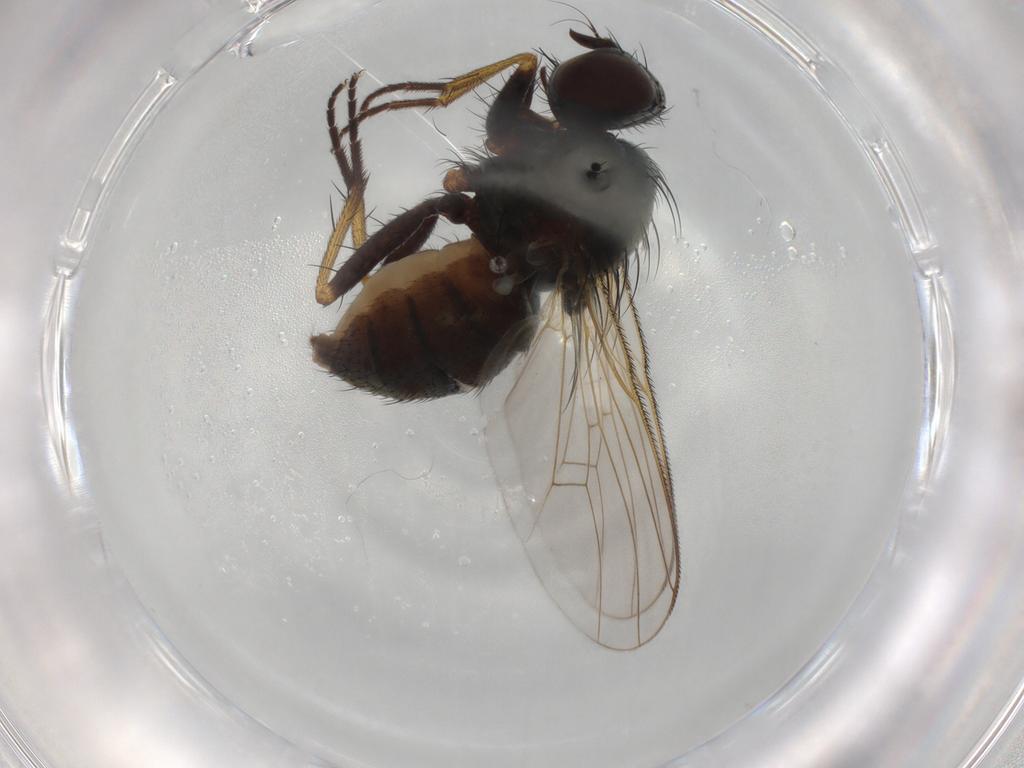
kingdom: Animalia
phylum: Arthropoda
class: Insecta
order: Diptera
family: Muscidae
